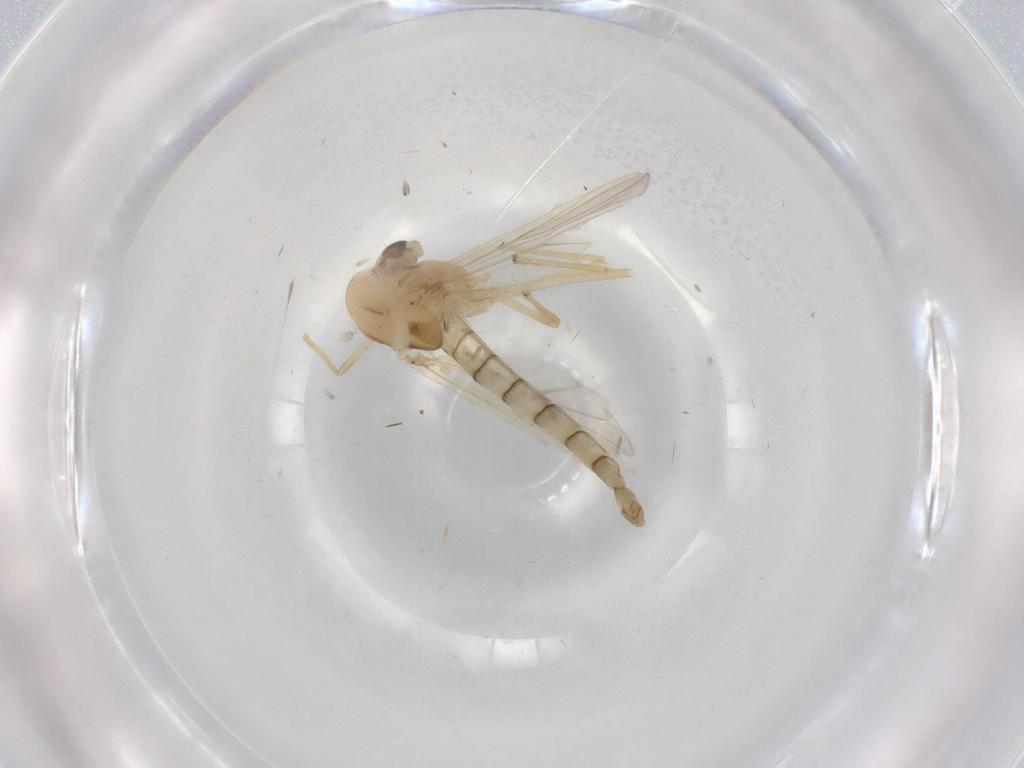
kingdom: Animalia
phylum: Arthropoda
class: Insecta
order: Diptera
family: Chironomidae
